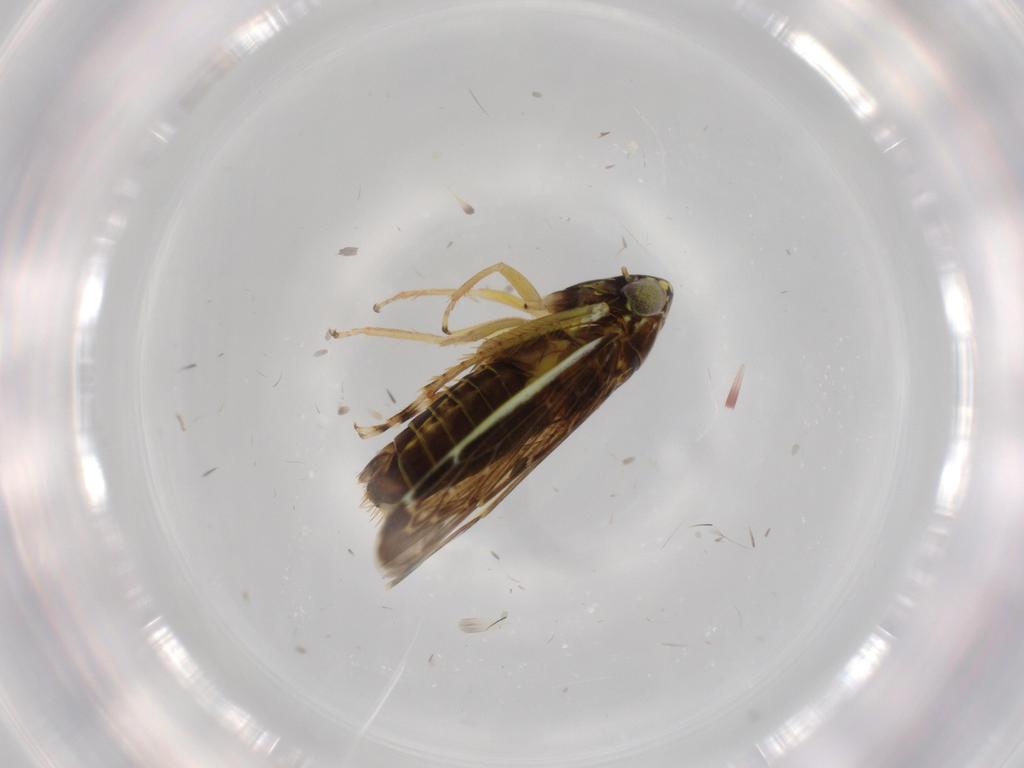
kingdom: Animalia
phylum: Arthropoda
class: Insecta
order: Hemiptera
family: Cicadellidae
